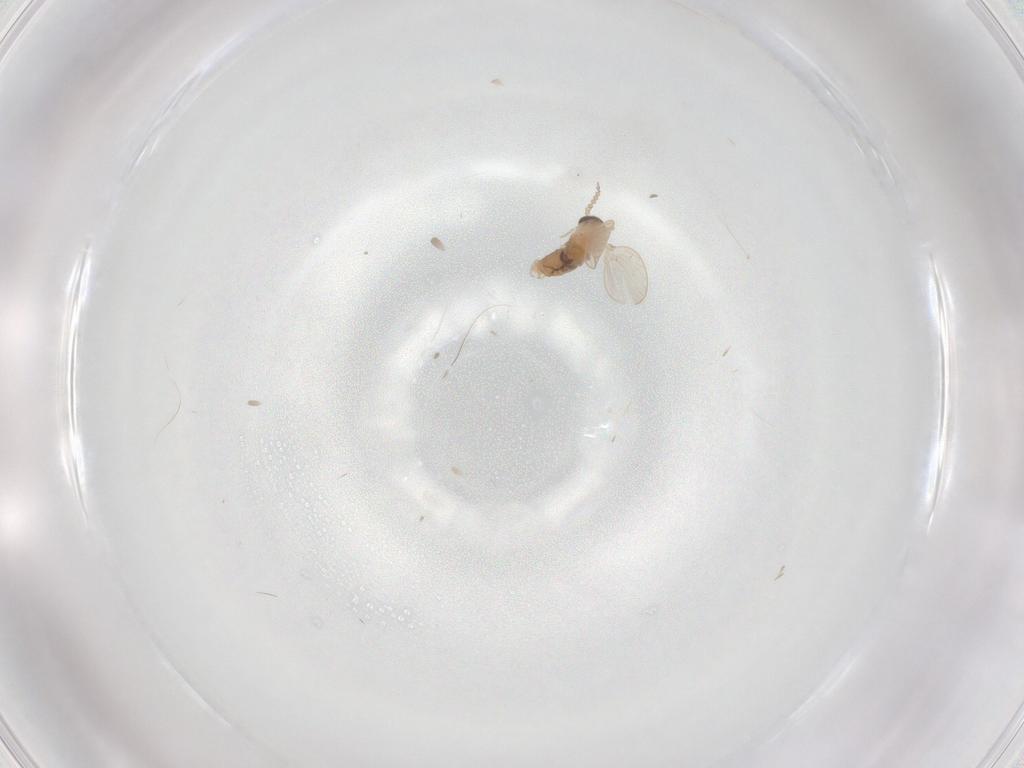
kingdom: Animalia
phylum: Arthropoda
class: Insecta
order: Diptera
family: Psychodidae
